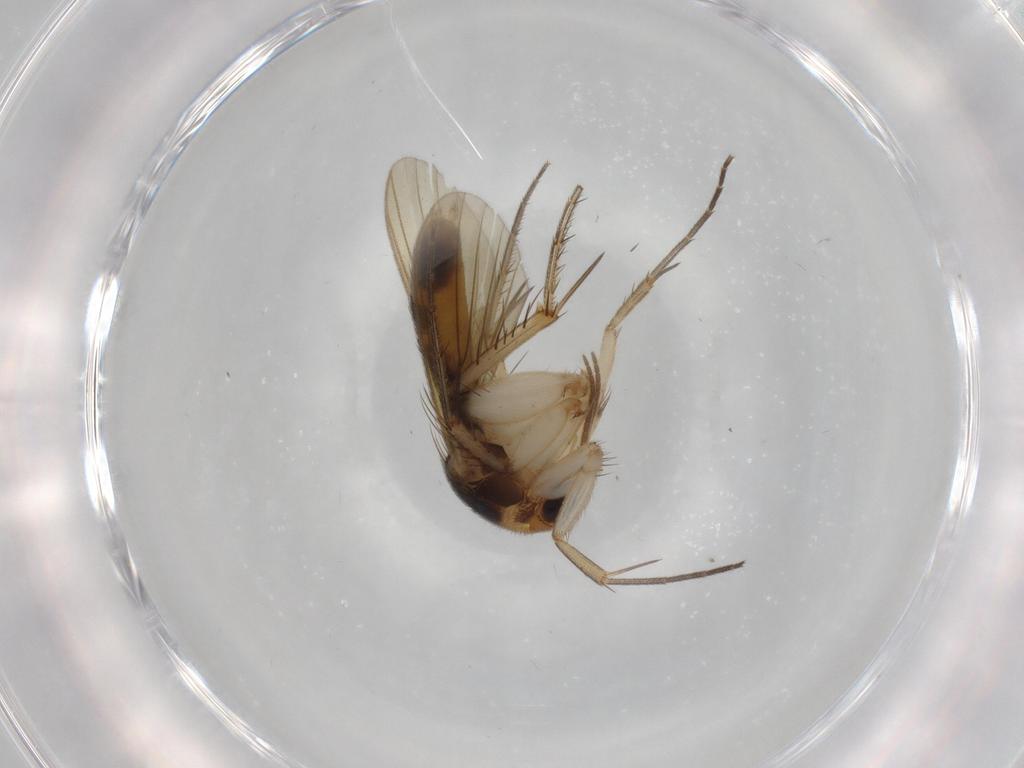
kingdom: Animalia
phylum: Arthropoda
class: Insecta
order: Diptera
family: Mycetophilidae
